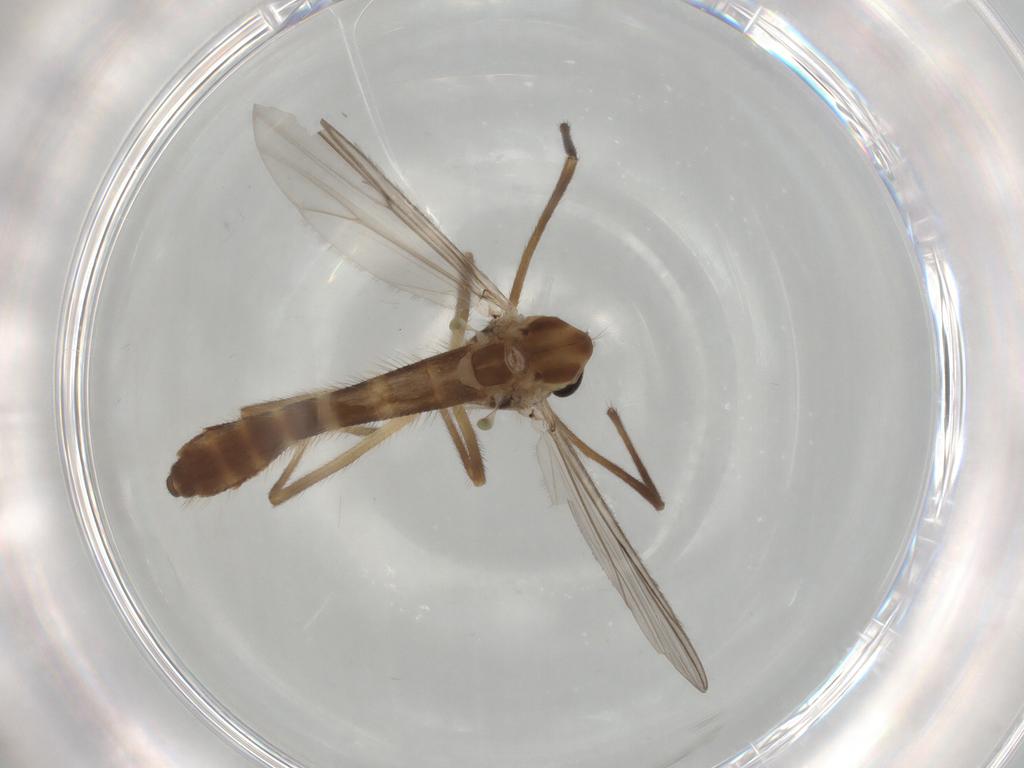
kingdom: Animalia
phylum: Arthropoda
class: Insecta
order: Diptera
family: Chironomidae
